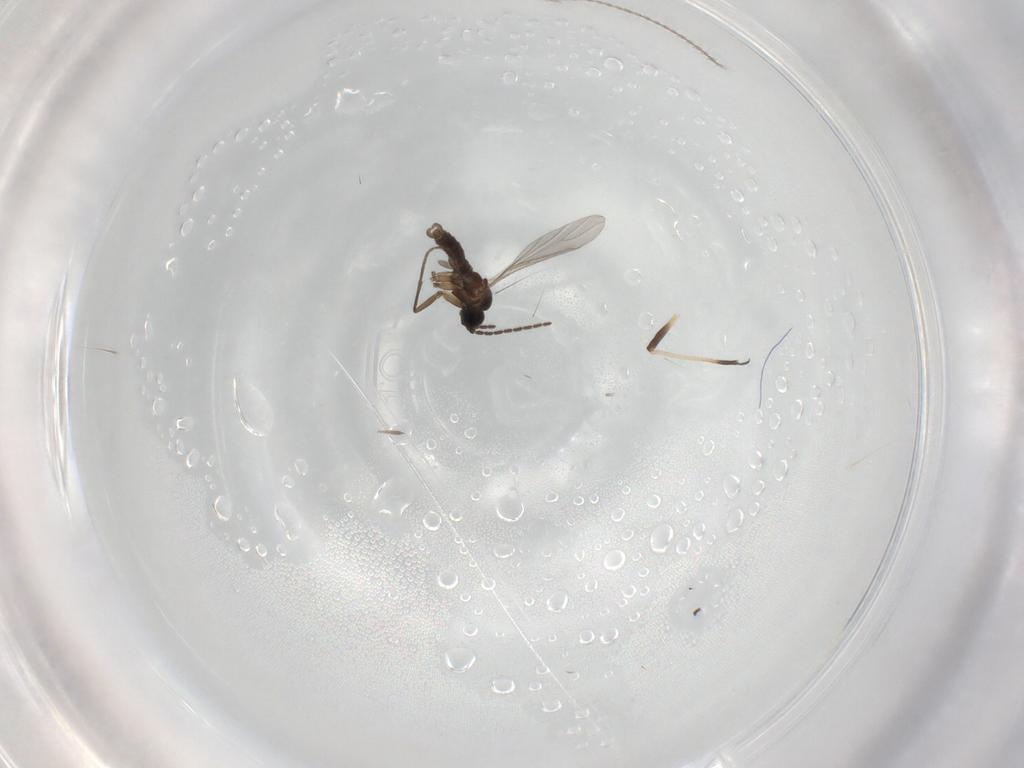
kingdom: Animalia
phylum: Arthropoda
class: Insecta
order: Diptera
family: Sciaridae
